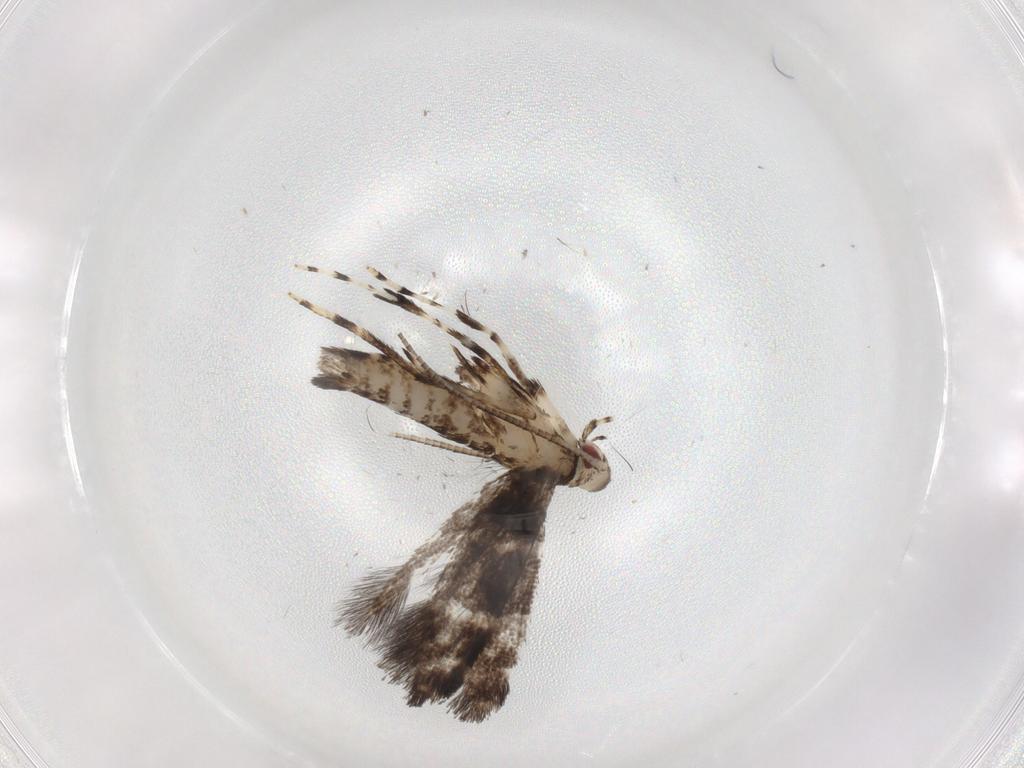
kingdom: Animalia
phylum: Arthropoda
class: Insecta
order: Lepidoptera
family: Gracillariidae
